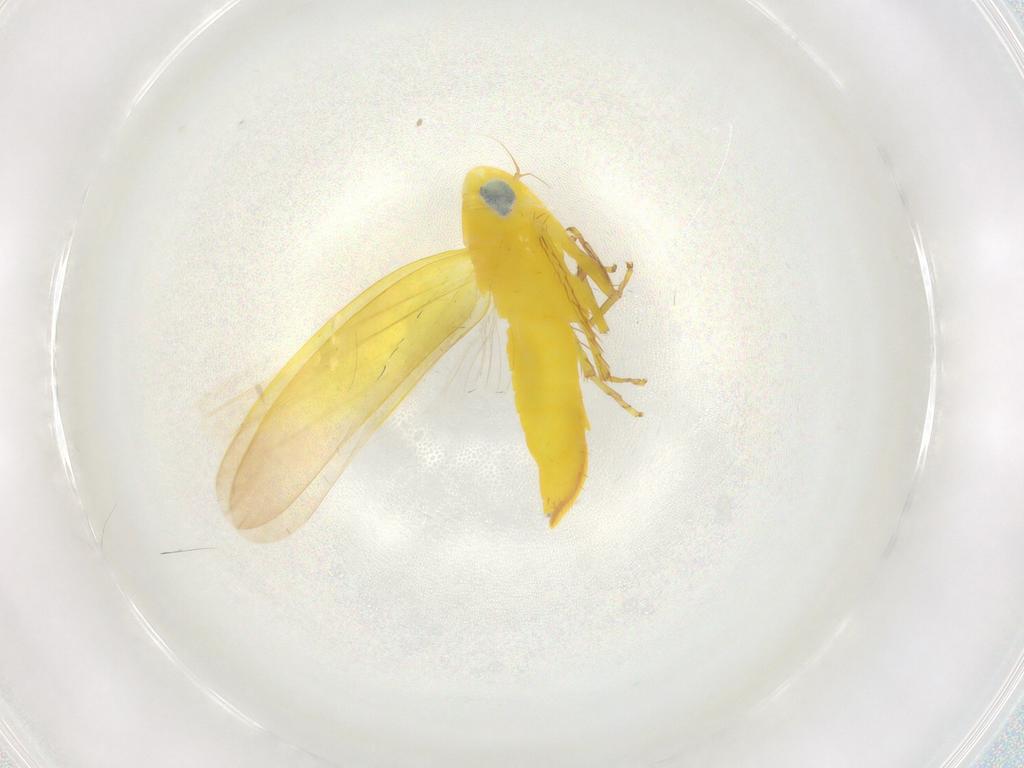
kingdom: Animalia
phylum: Arthropoda
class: Insecta
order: Hemiptera
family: Cicadellidae
